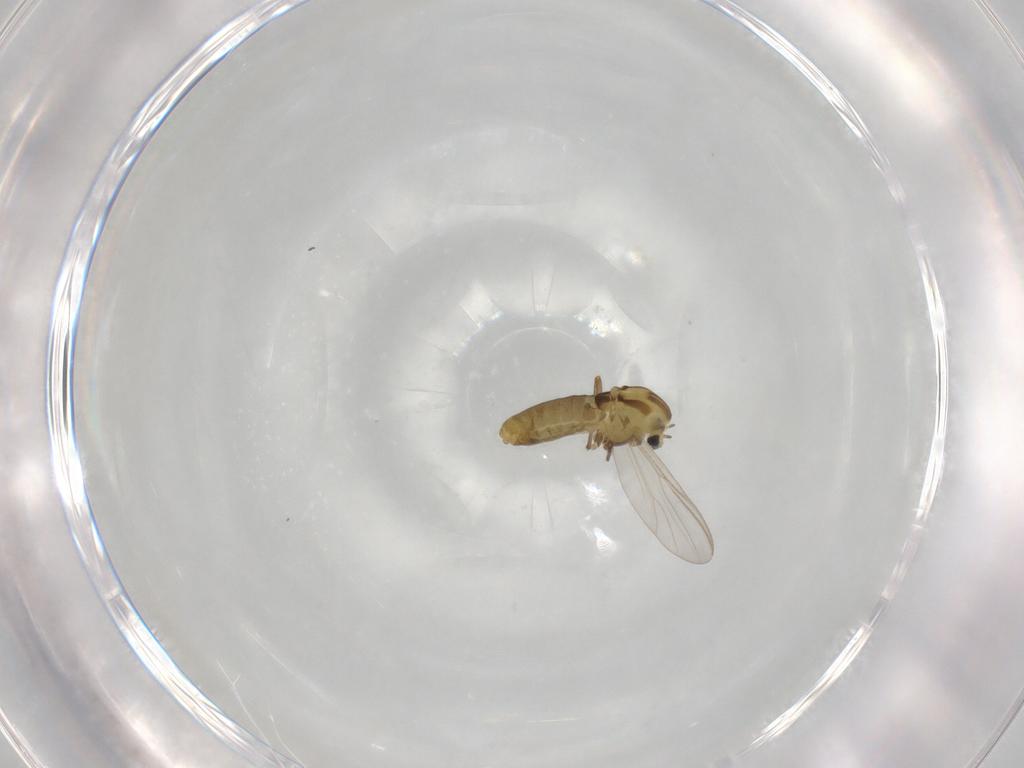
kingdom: Animalia
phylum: Arthropoda
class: Insecta
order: Diptera
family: Chironomidae
